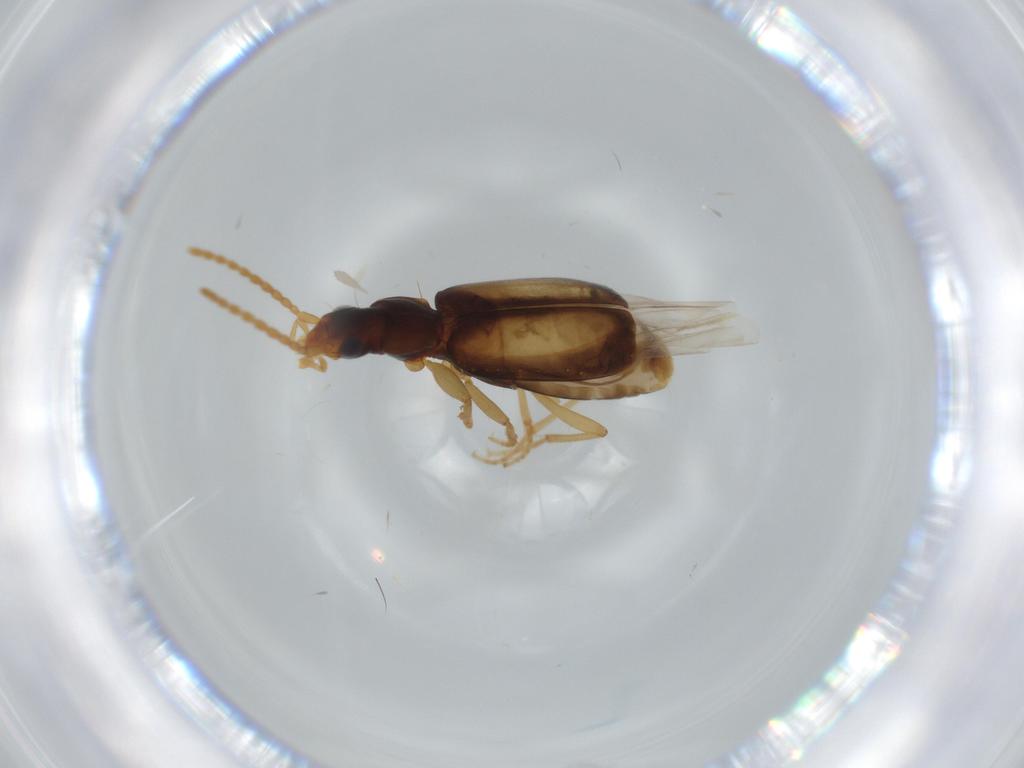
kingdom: Animalia
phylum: Arthropoda
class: Insecta
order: Coleoptera
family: Carabidae
